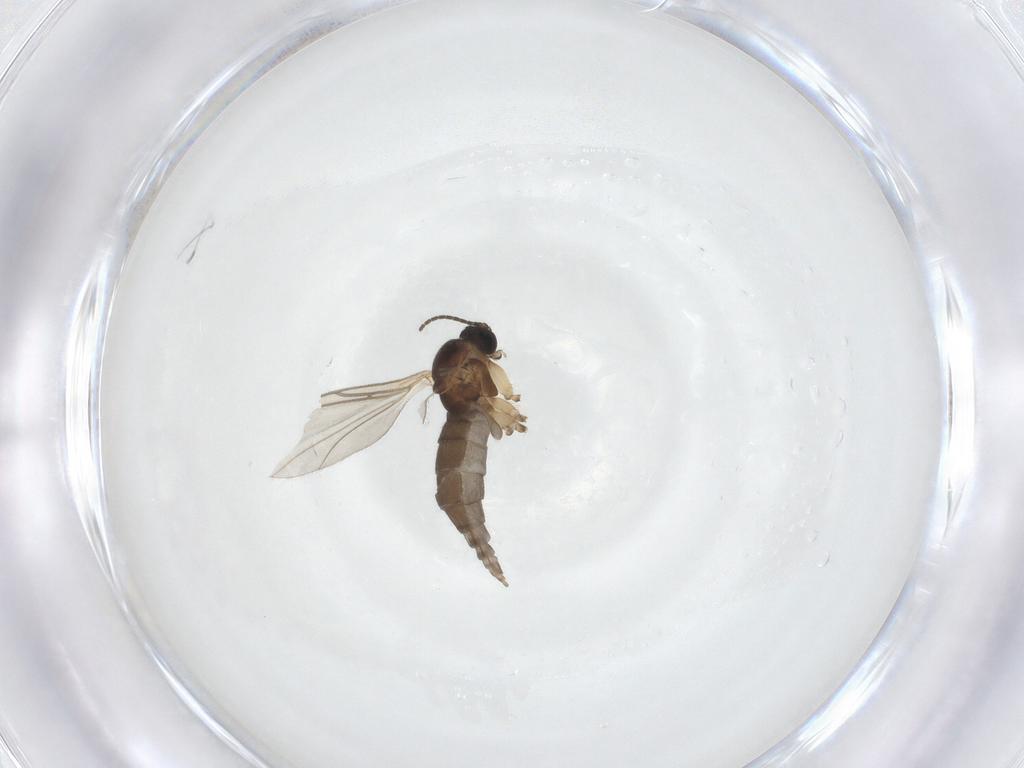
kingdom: Animalia
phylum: Arthropoda
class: Insecta
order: Diptera
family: Sciaridae
